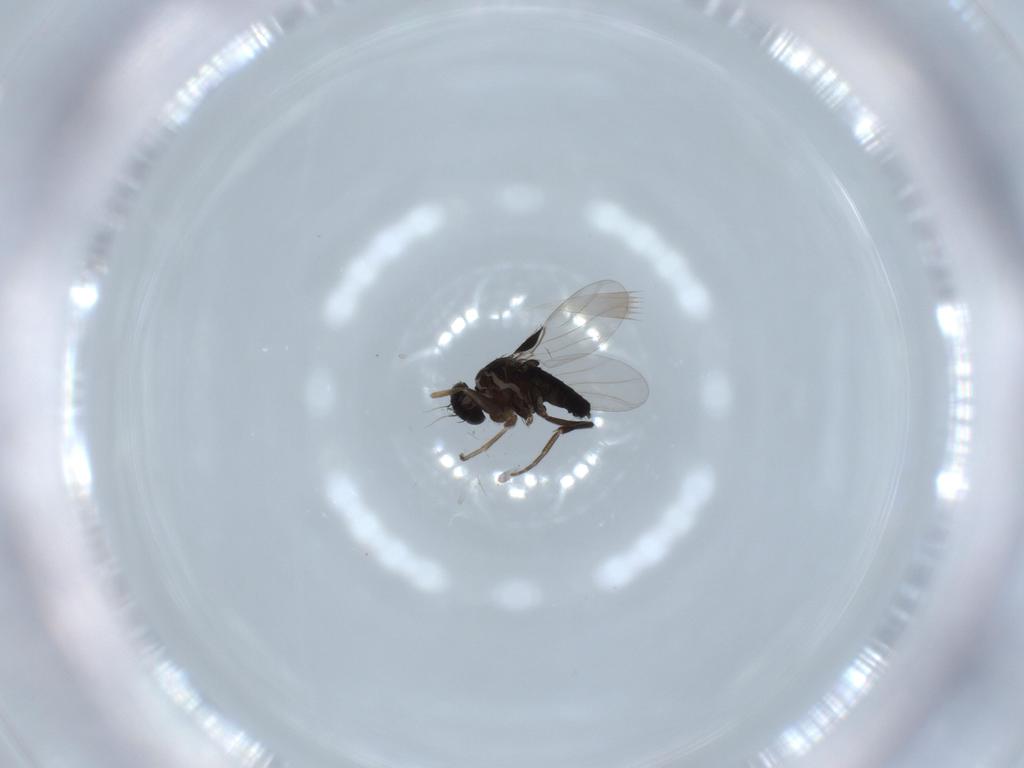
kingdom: Animalia
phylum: Arthropoda
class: Insecta
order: Diptera
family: Phoridae
